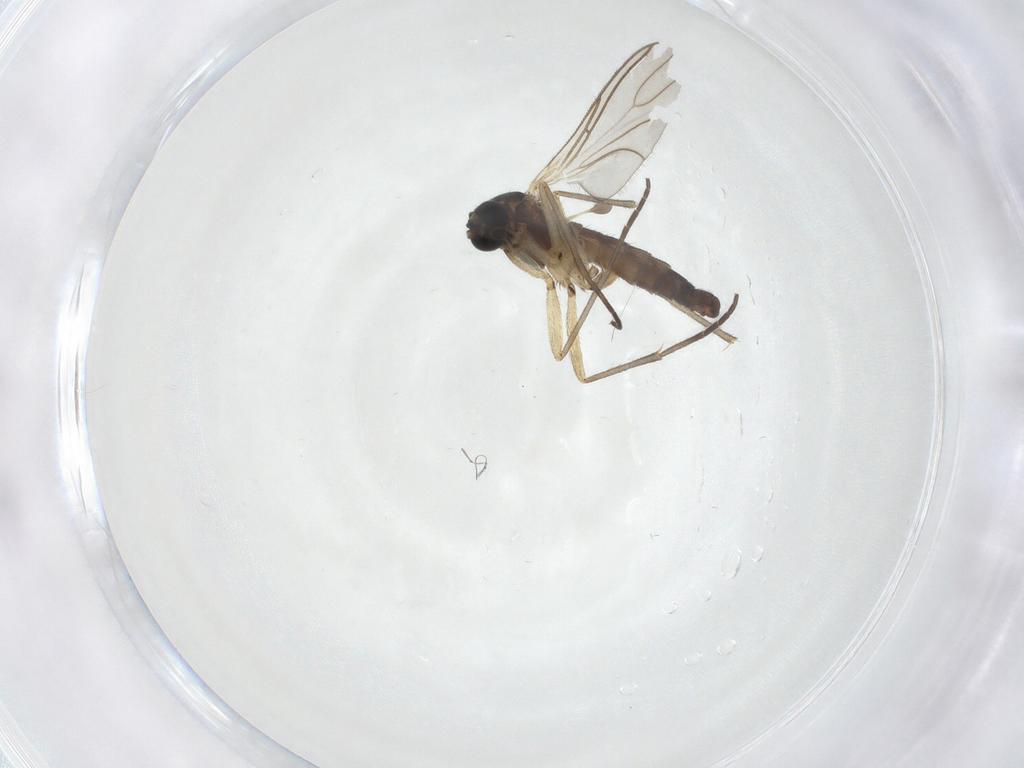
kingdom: Animalia
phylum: Arthropoda
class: Insecta
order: Diptera
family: Sciaridae
